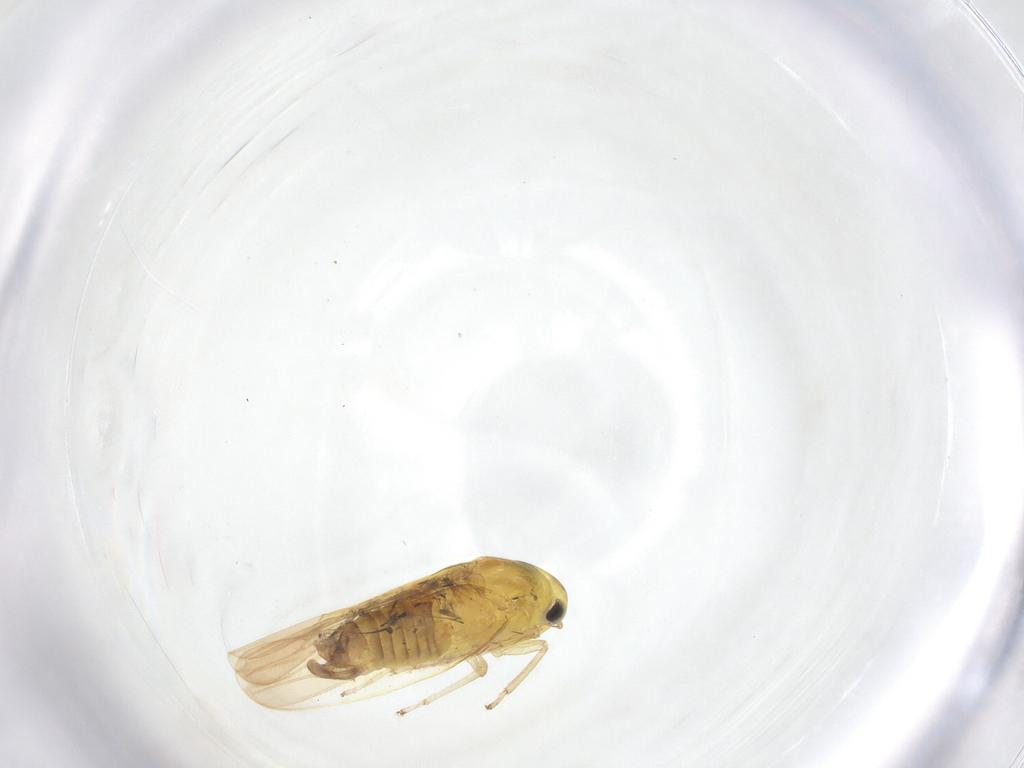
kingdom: Animalia
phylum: Arthropoda
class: Insecta
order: Hemiptera
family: Cicadellidae
